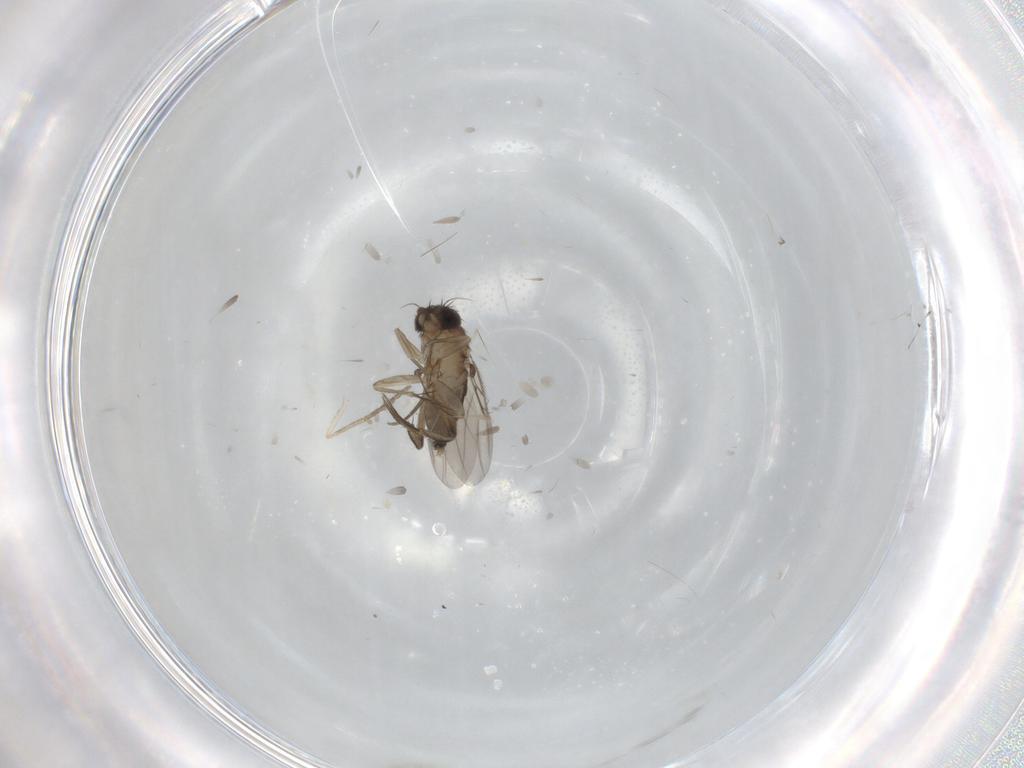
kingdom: Animalia
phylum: Arthropoda
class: Insecta
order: Diptera
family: Phoridae
